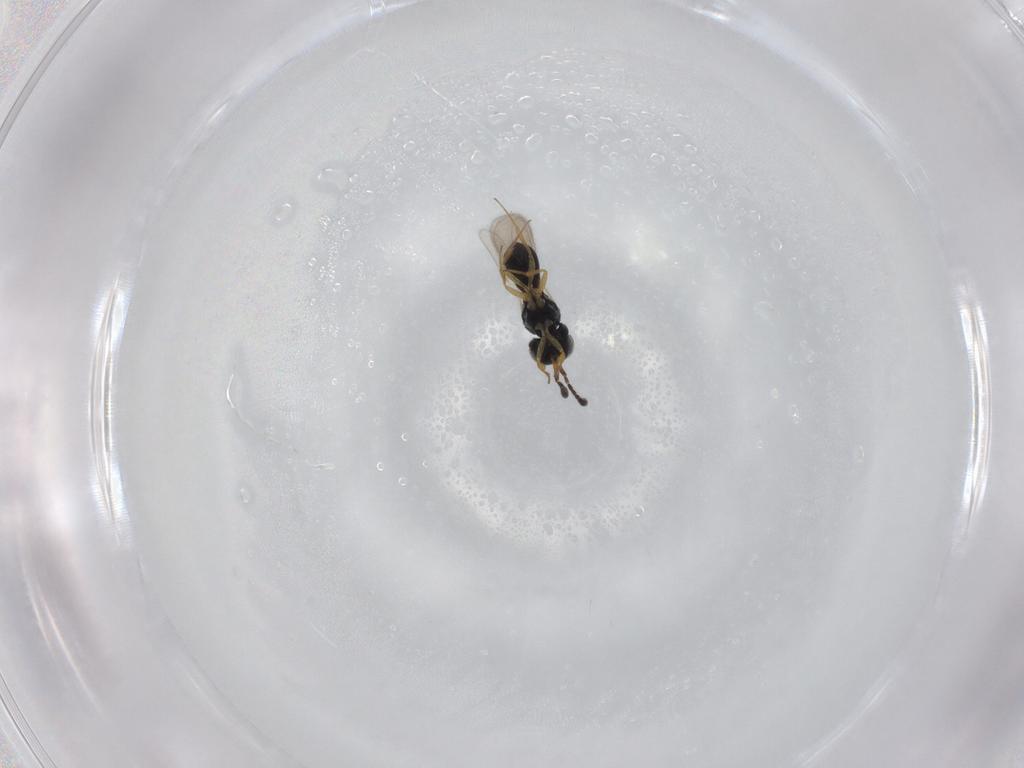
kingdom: Animalia
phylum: Arthropoda
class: Insecta
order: Hymenoptera
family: Scelionidae
